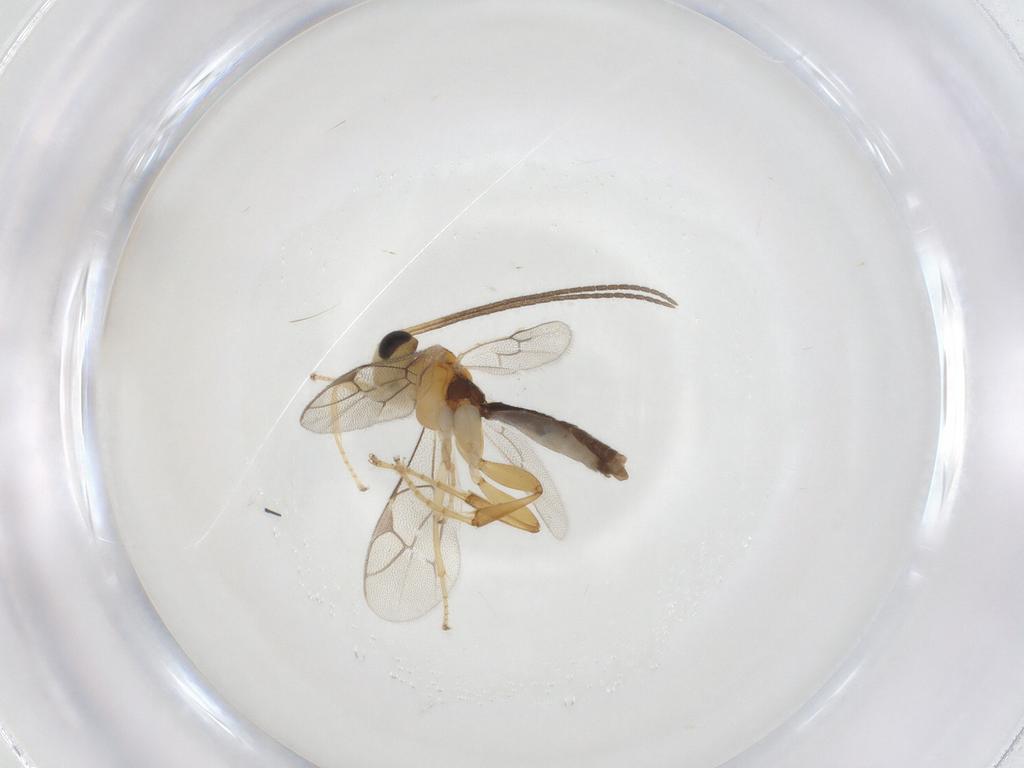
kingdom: Animalia
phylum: Arthropoda
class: Insecta
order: Hymenoptera
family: Ichneumonidae
